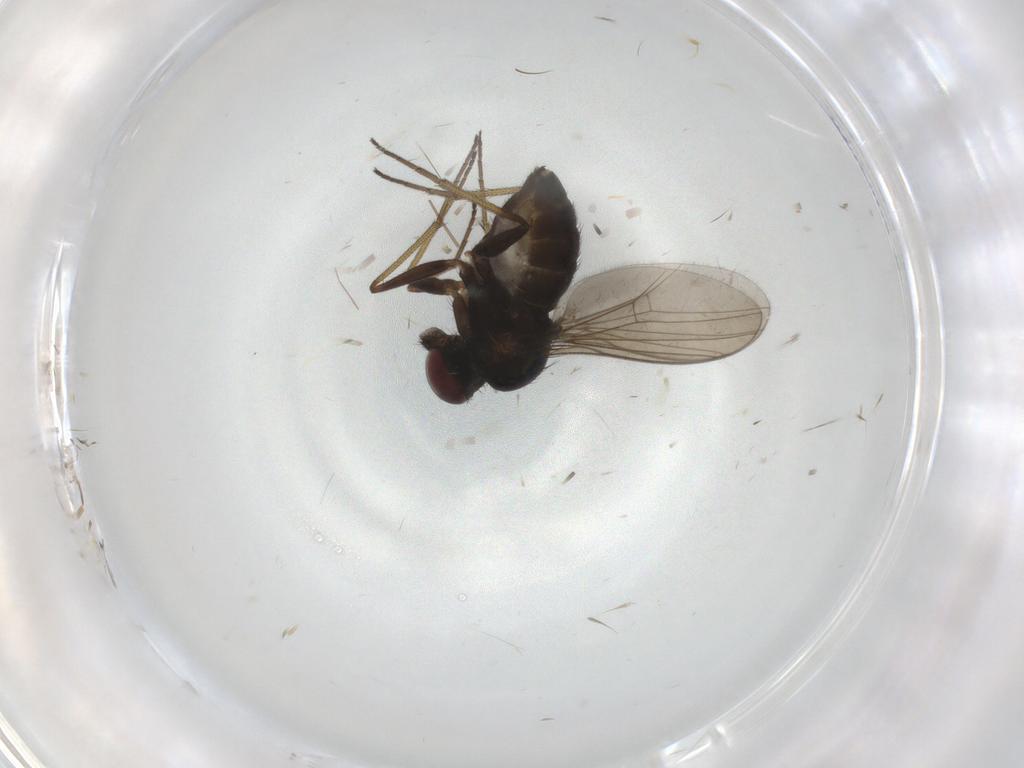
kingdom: Animalia
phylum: Arthropoda
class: Insecta
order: Diptera
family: Dolichopodidae
